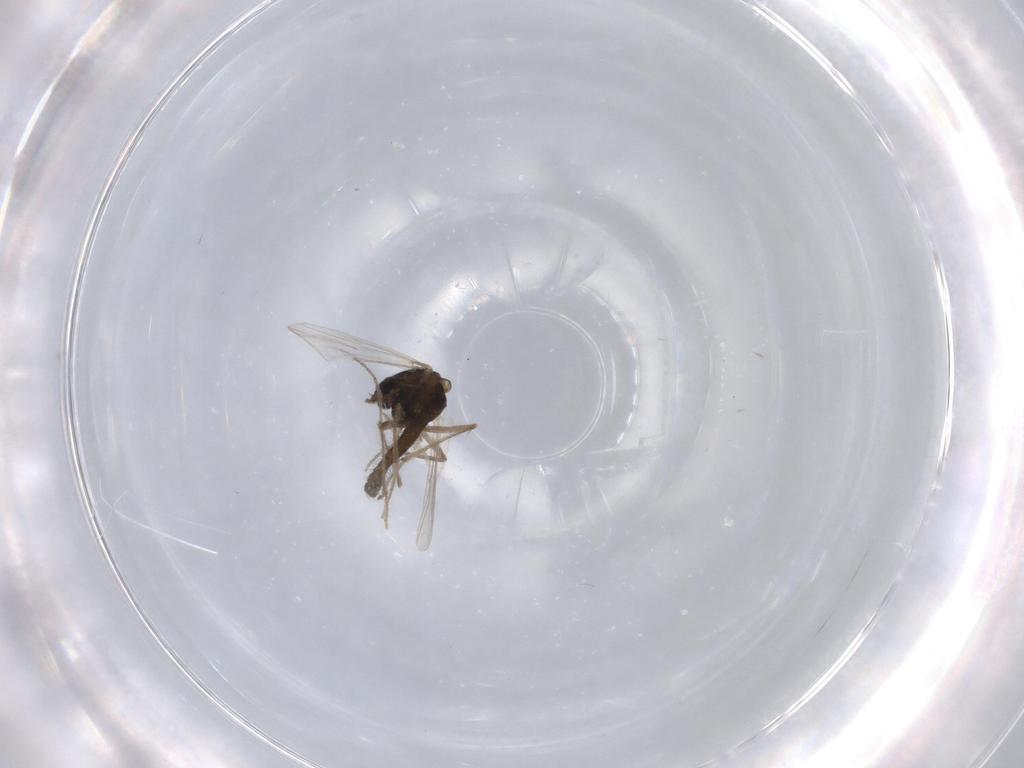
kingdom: Animalia
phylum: Arthropoda
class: Insecta
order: Diptera
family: Chironomidae
